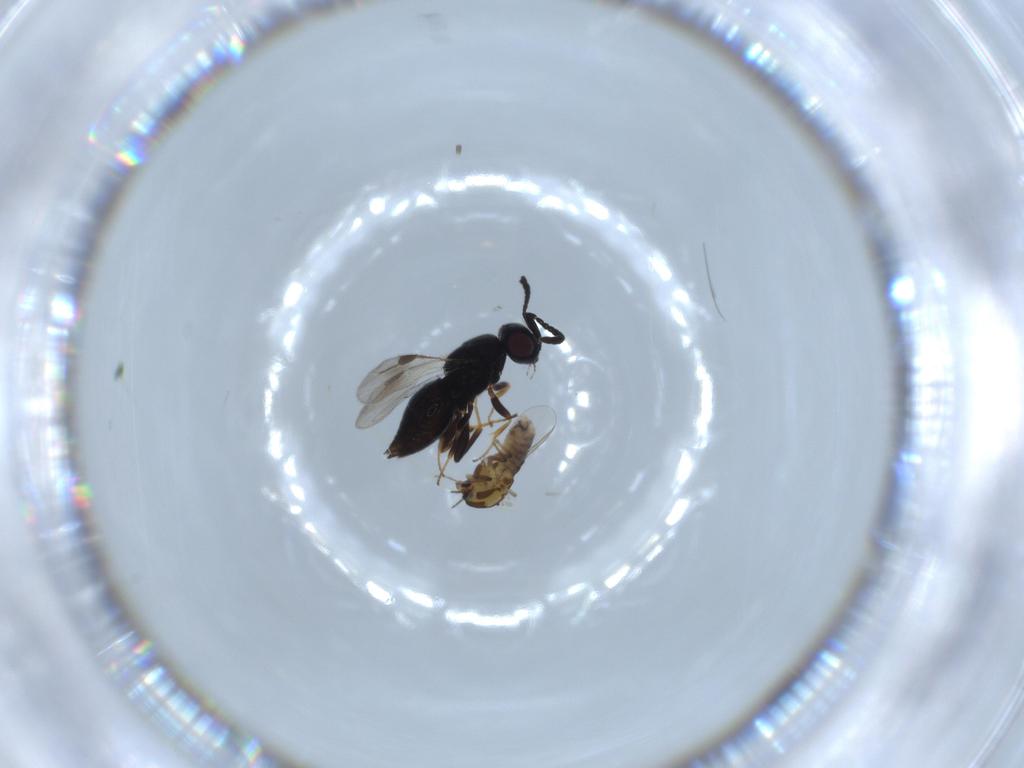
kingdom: Animalia
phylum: Arthropoda
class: Insecta
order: Diptera
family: Chironomidae
